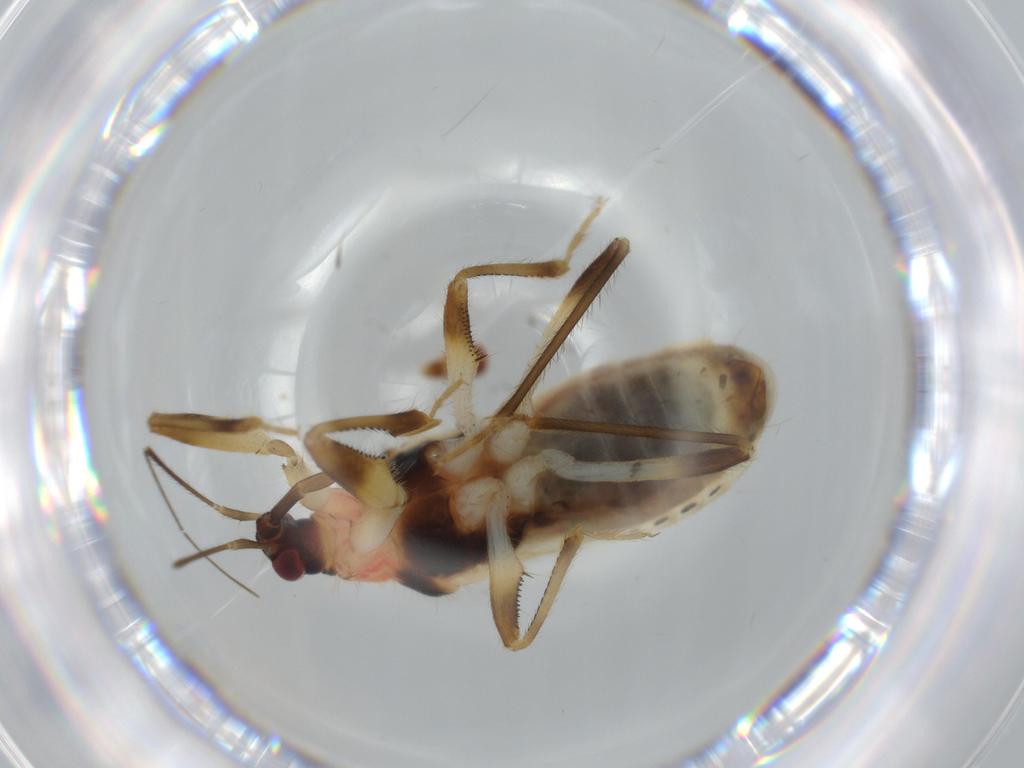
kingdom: Animalia
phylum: Arthropoda
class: Insecta
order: Hemiptera
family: Nabidae
